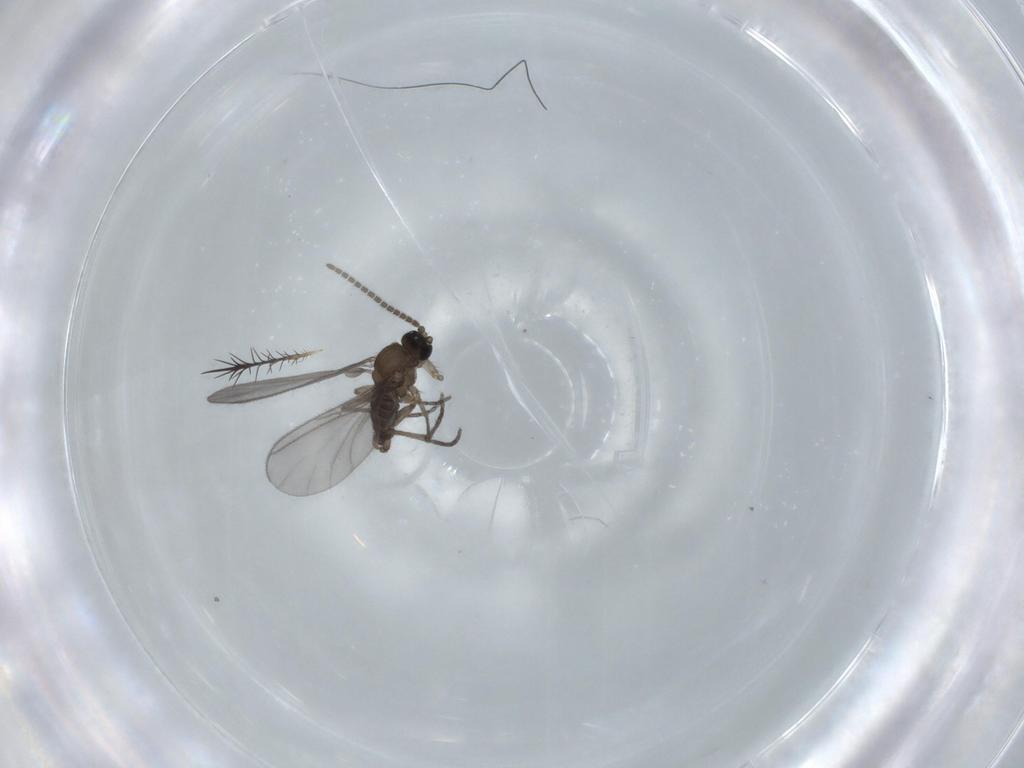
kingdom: Animalia
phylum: Arthropoda
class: Insecta
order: Diptera
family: Sciaridae
